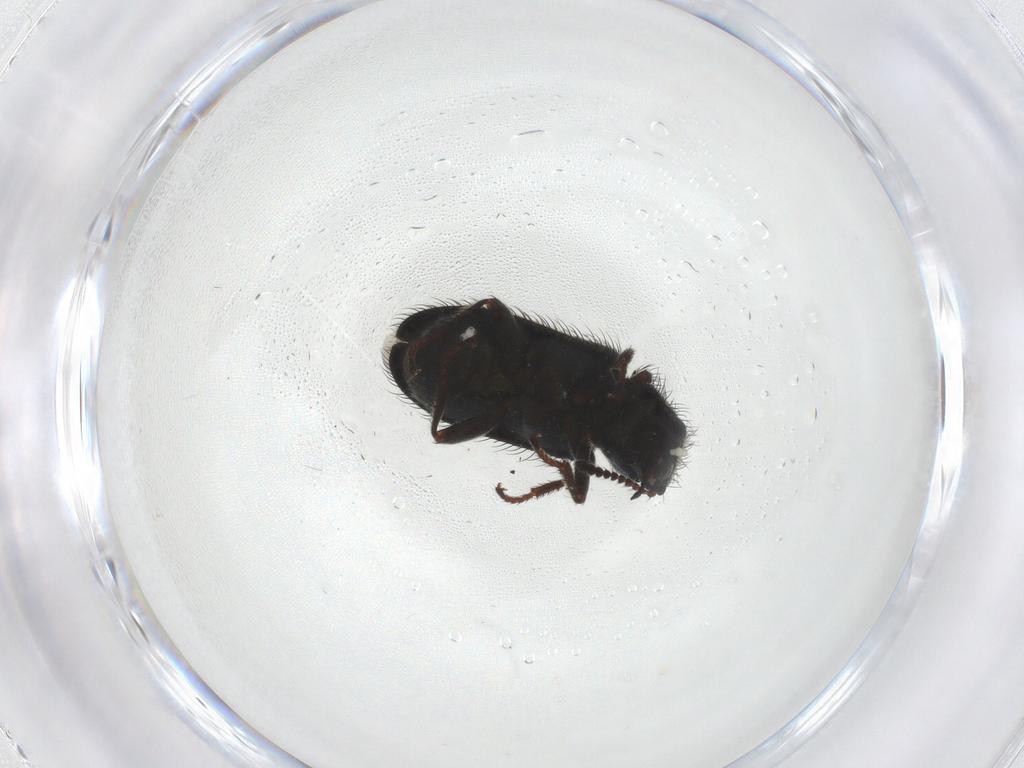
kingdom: Animalia
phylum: Arthropoda
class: Insecta
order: Coleoptera
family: Melyridae
